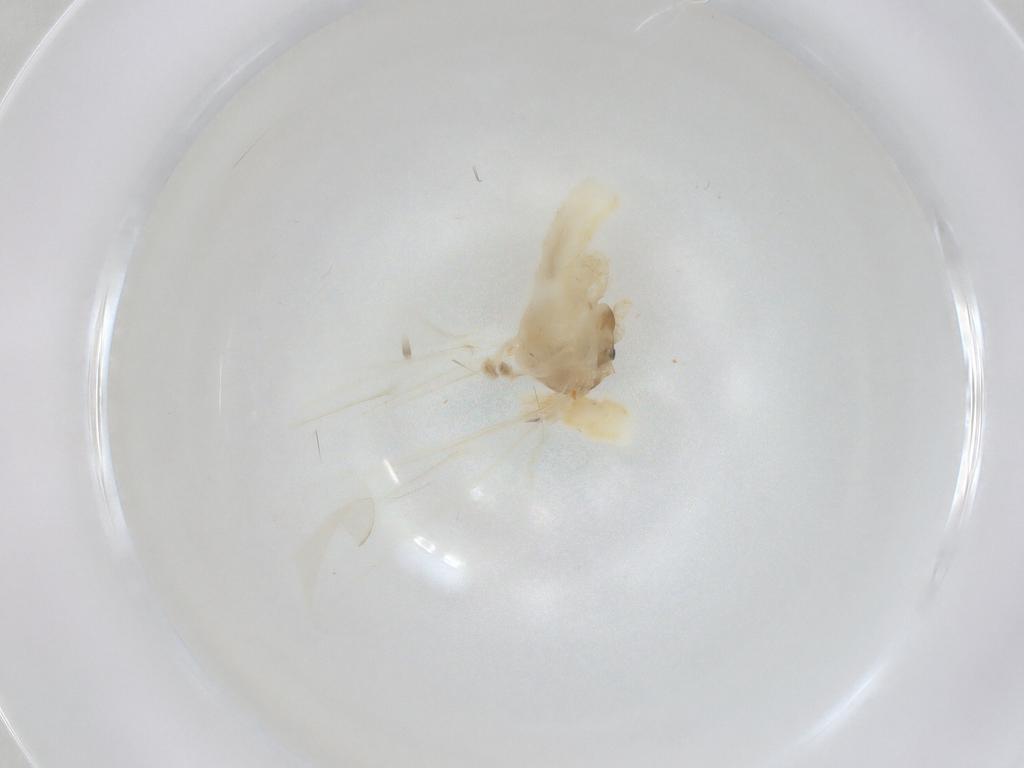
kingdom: Animalia
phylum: Arthropoda
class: Insecta
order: Diptera
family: Cecidomyiidae
